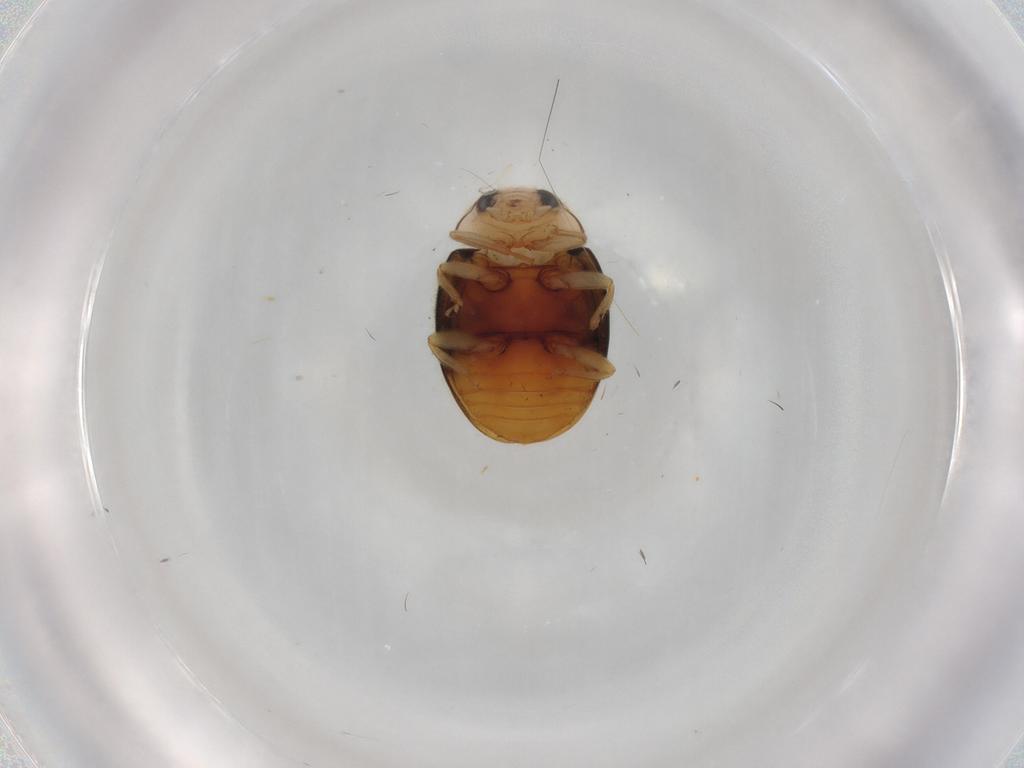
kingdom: Animalia
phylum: Arthropoda
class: Insecta
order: Coleoptera
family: Coccinellidae
